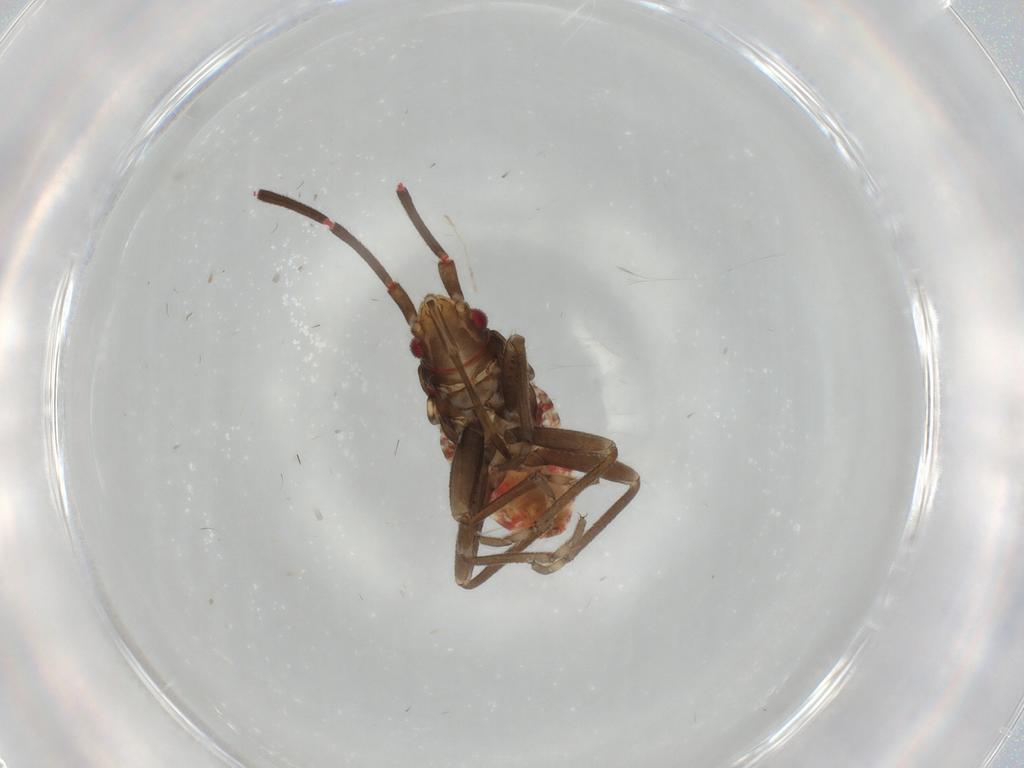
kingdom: Animalia
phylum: Arthropoda
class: Insecta
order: Hemiptera
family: Rhyparochromidae
